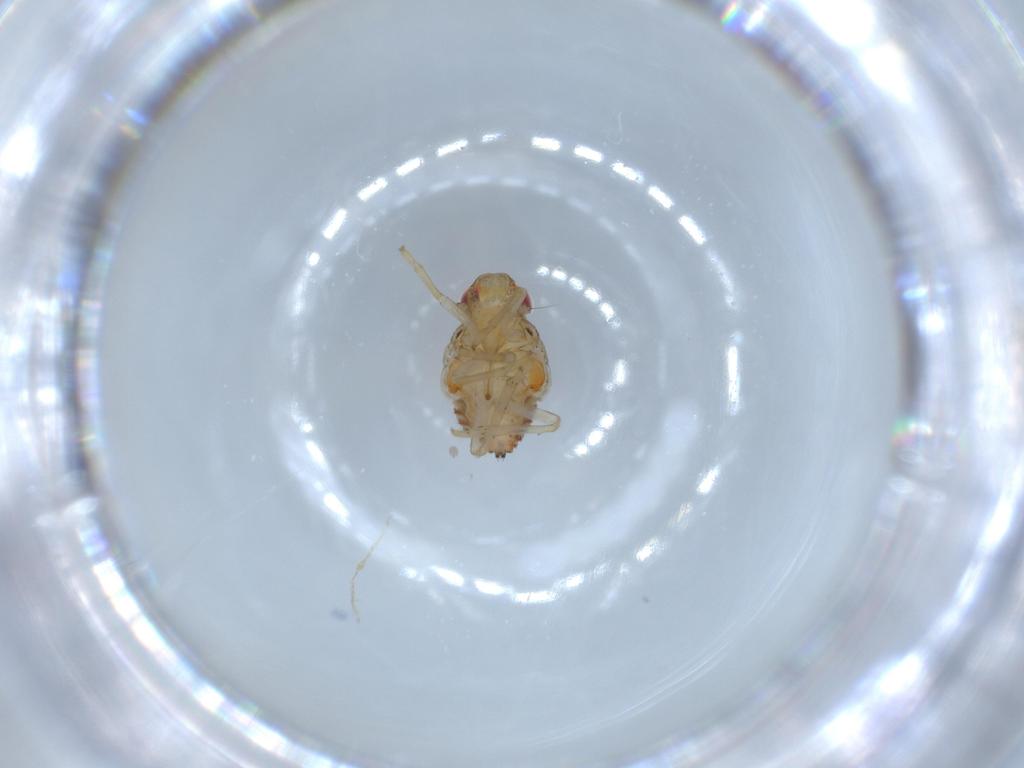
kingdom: Animalia
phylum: Arthropoda
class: Insecta
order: Hemiptera
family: Issidae
